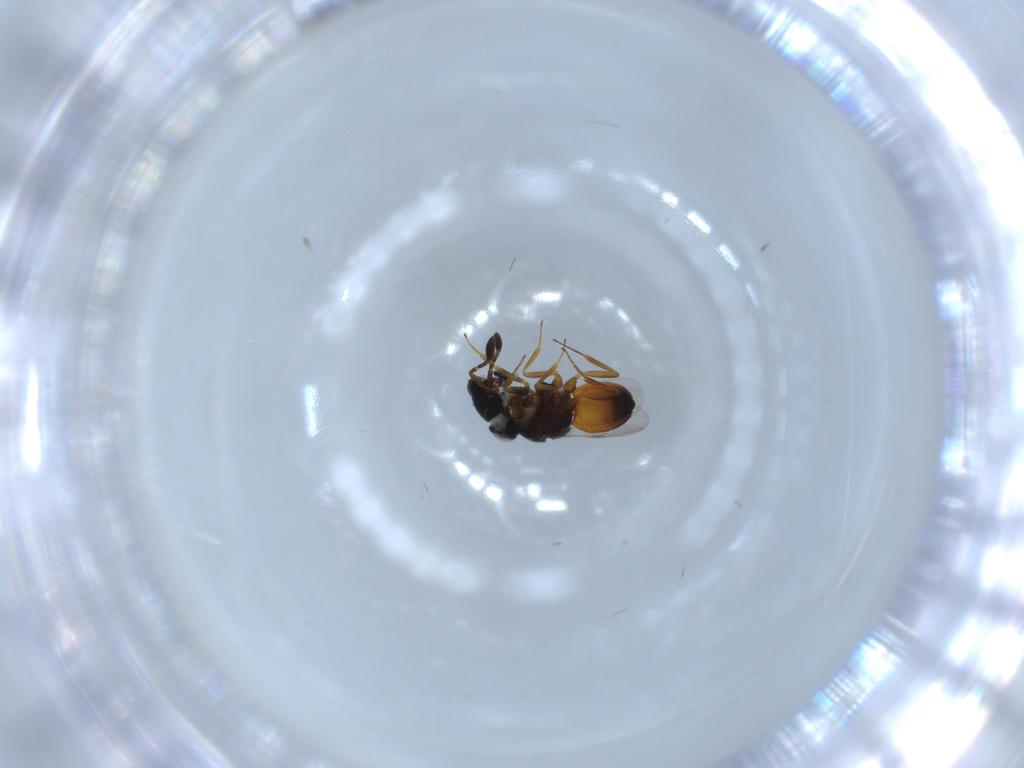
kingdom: Animalia
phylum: Arthropoda
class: Insecta
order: Hymenoptera
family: Scelionidae
